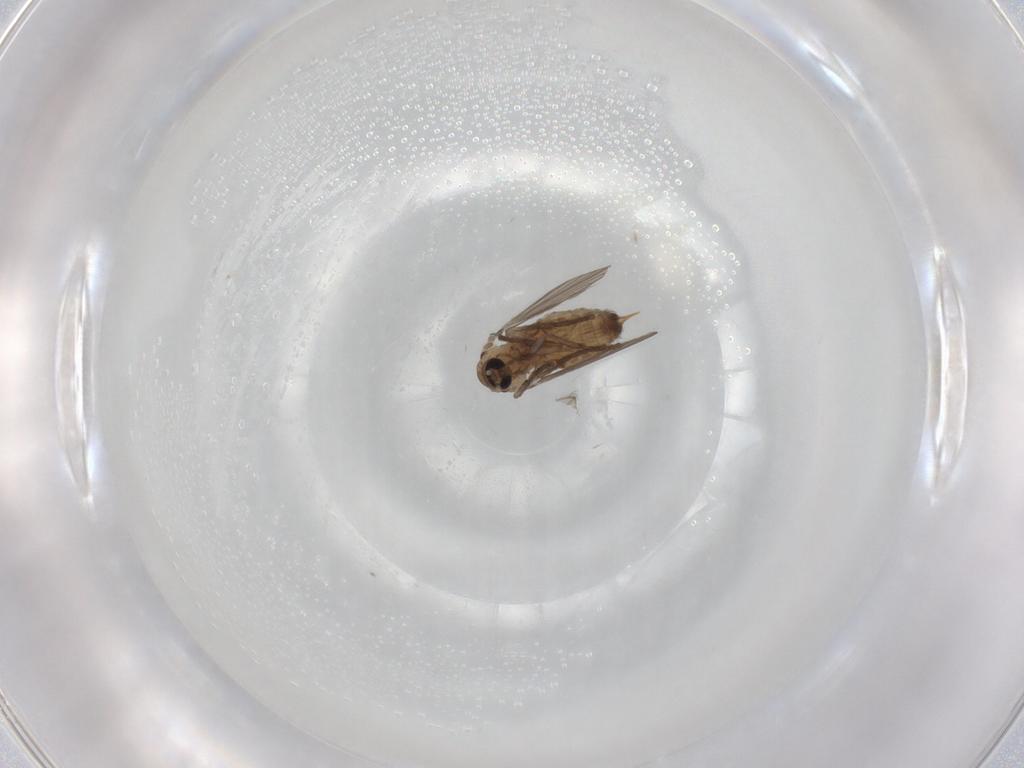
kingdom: Animalia
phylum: Arthropoda
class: Insecta
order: Diptera
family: Psychodidae
